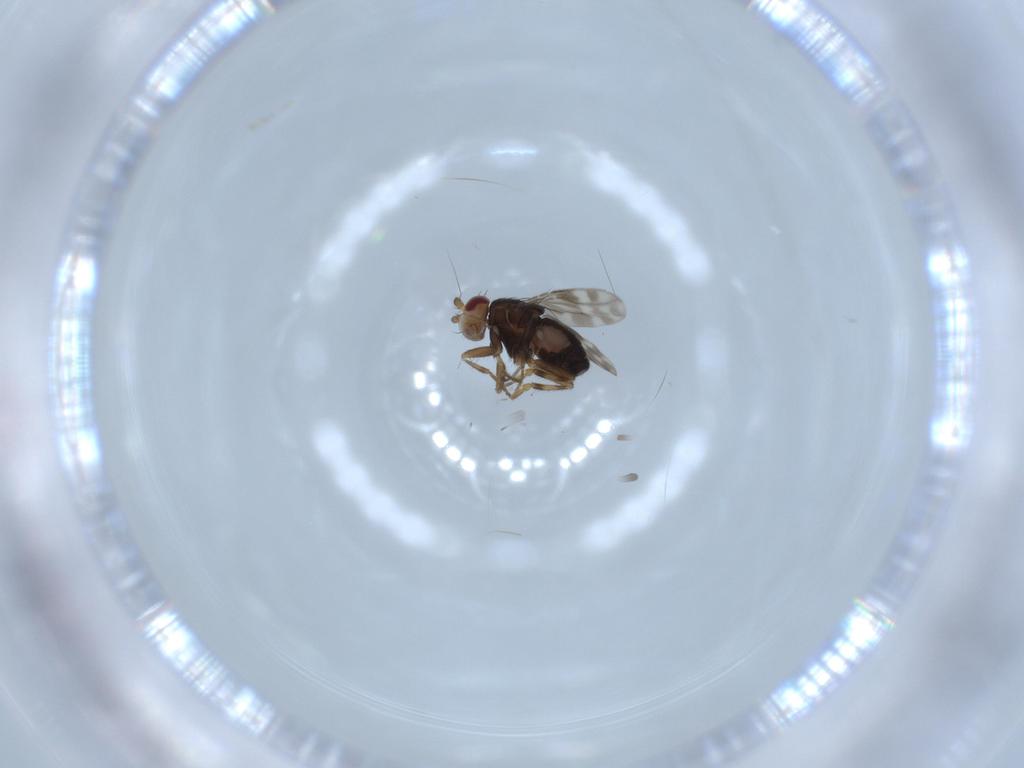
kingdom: Animalia
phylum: Arthropoda
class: Insecta
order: Diptera
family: Sphaeroceridae
